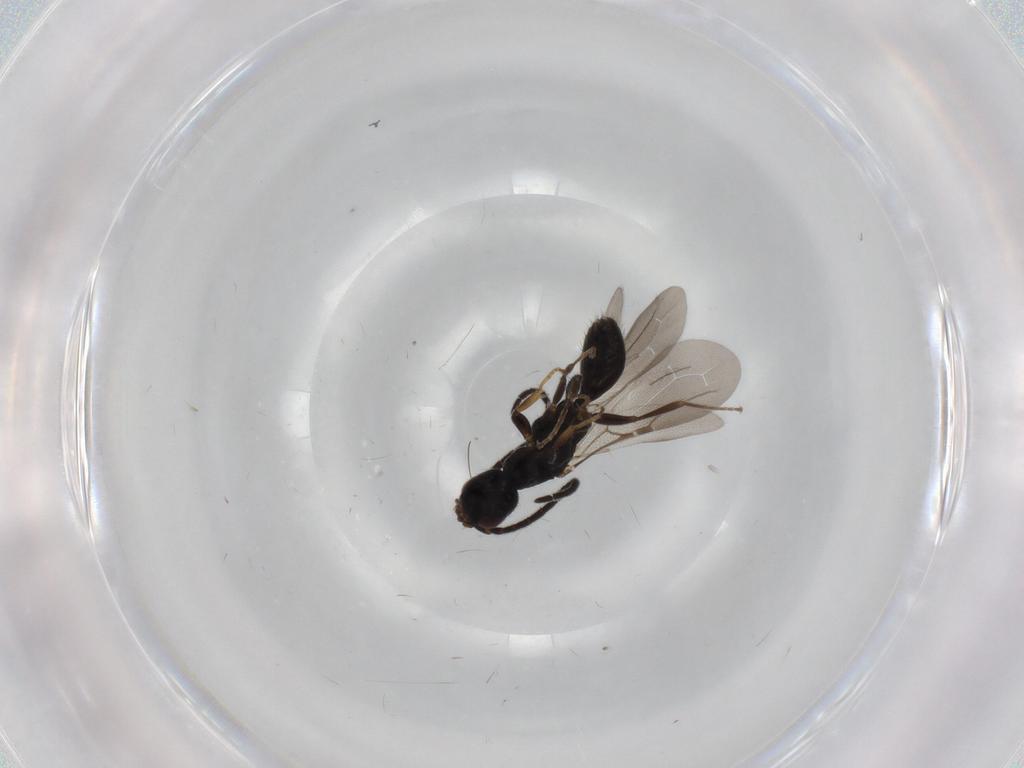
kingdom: Animalia
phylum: Arthropoda
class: Insecta
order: Hymenoptera
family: Bethylidae
